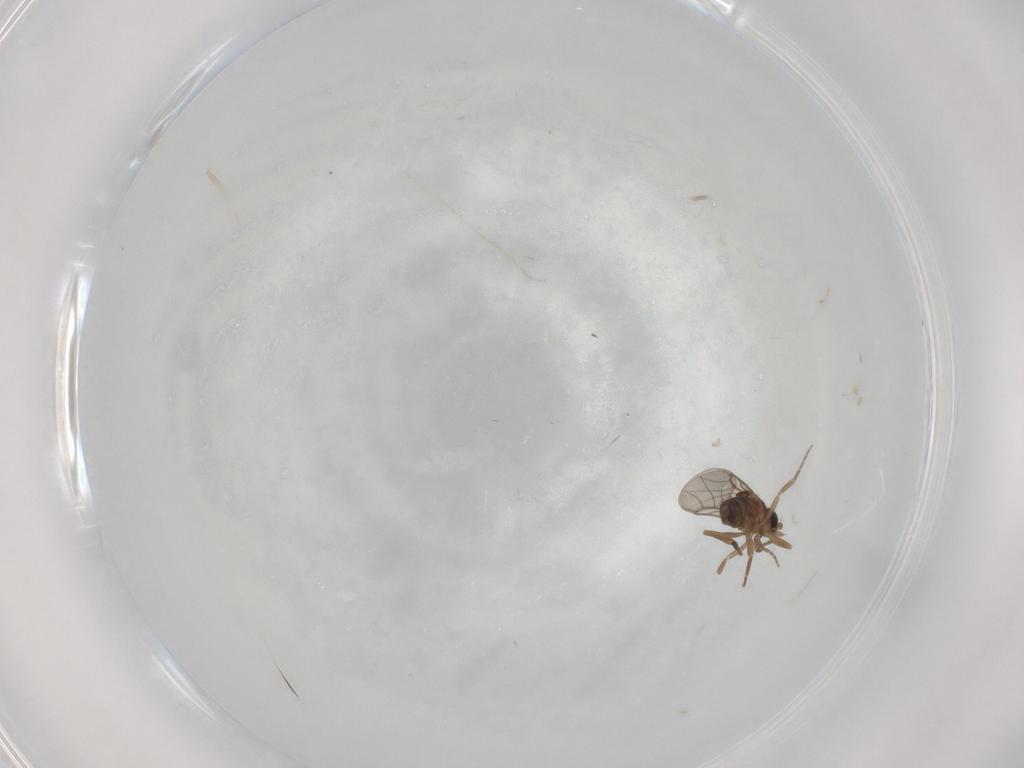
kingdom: Animalia
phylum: Arthropoda
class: Insecta
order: Diptera
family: Phoridae
